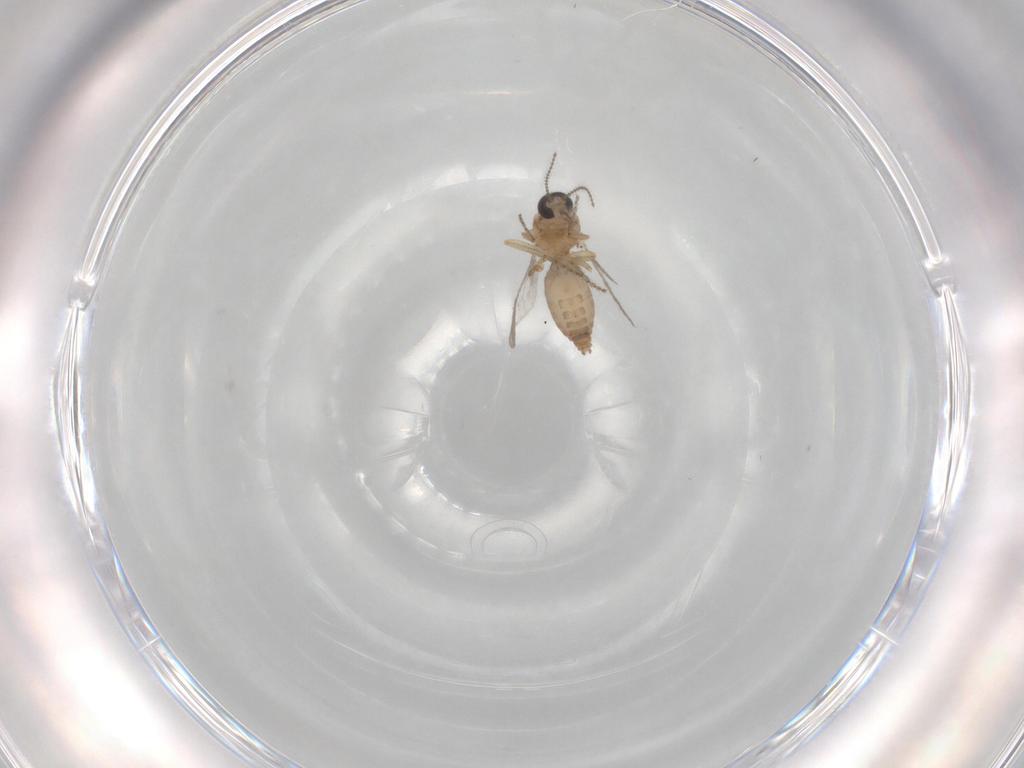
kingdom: Animalia
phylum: Arthropoda
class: Insecta
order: Diptera
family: Ceratopogonidae
